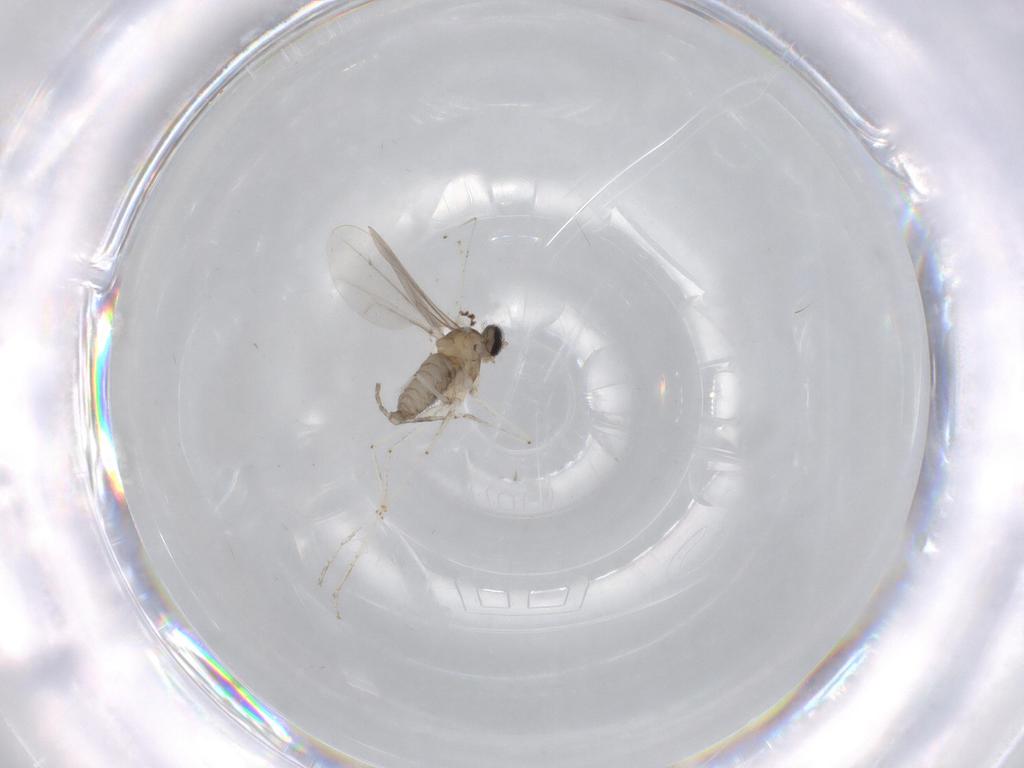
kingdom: Animalia
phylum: Arthropoda
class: Insecta
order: Diptera
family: Cecidomyiidae
